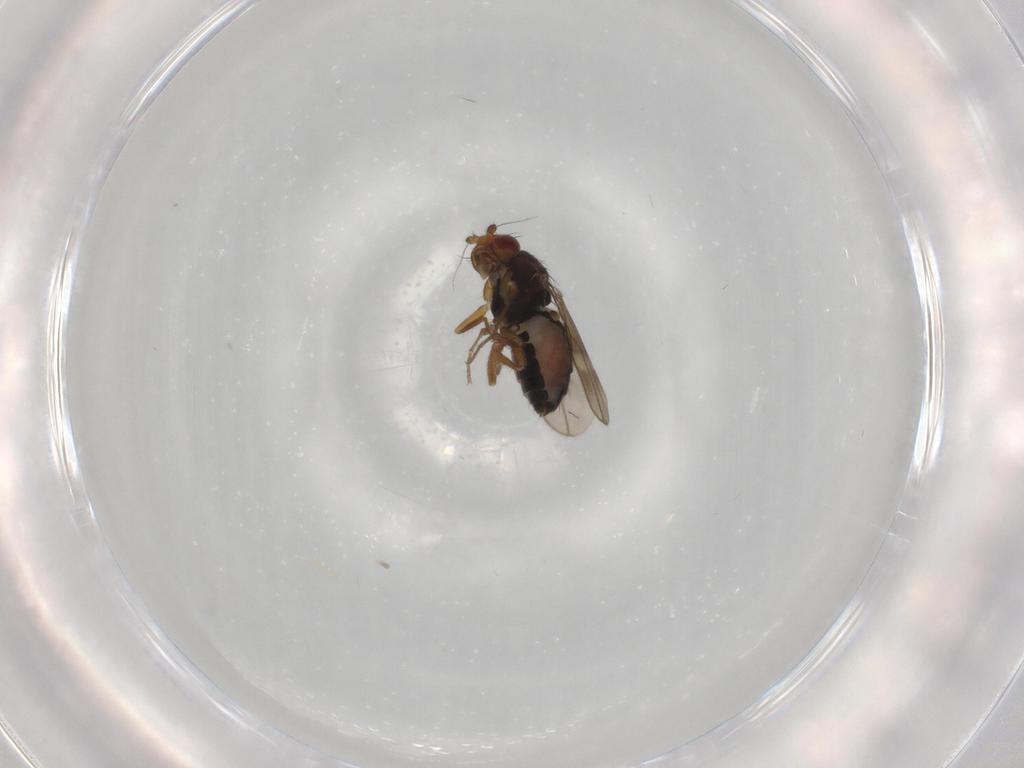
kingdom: Animalia
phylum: Arthropoda
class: Insecta
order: Diptera
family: Sphaeroceridae
